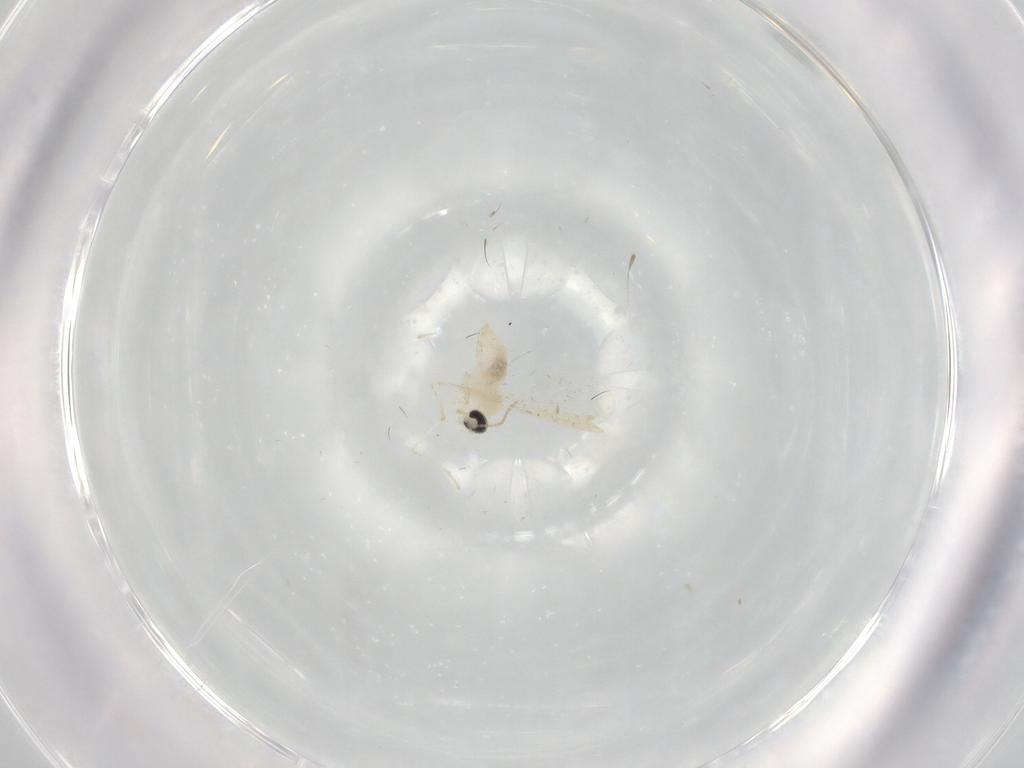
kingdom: Animalia
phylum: Arthropoda
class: Insecta
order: Diptera
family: Cecidomyiidae
